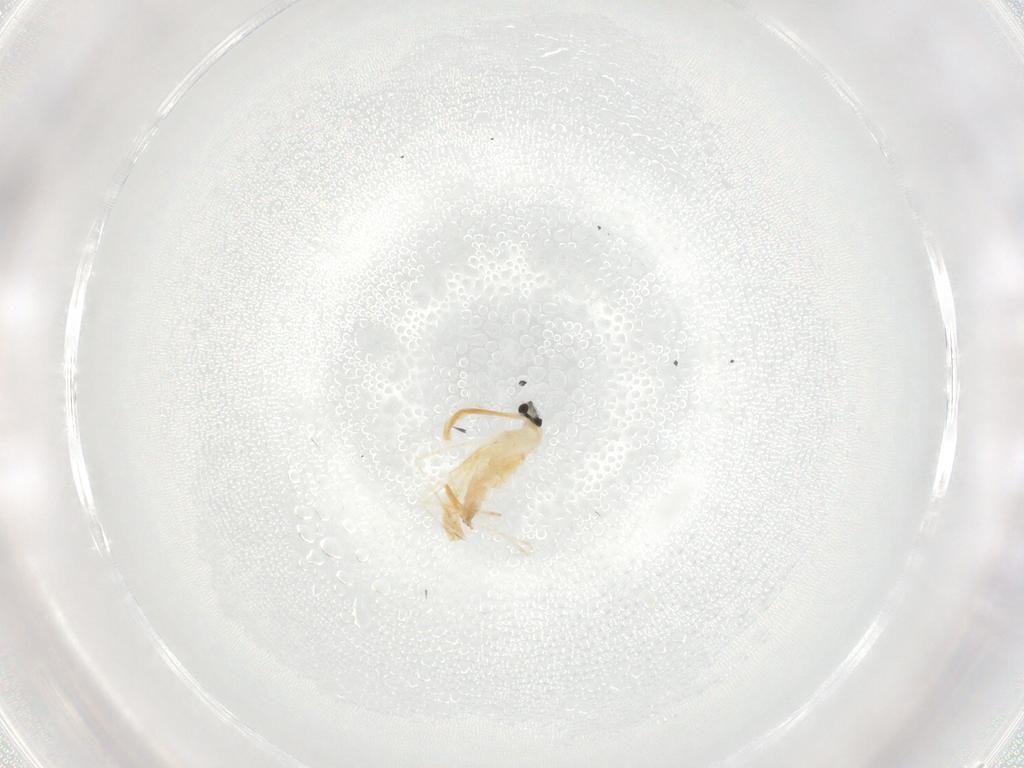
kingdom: Animalia
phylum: Arthropoda
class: Insecta
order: Diptera
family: Cecidomyiidae
